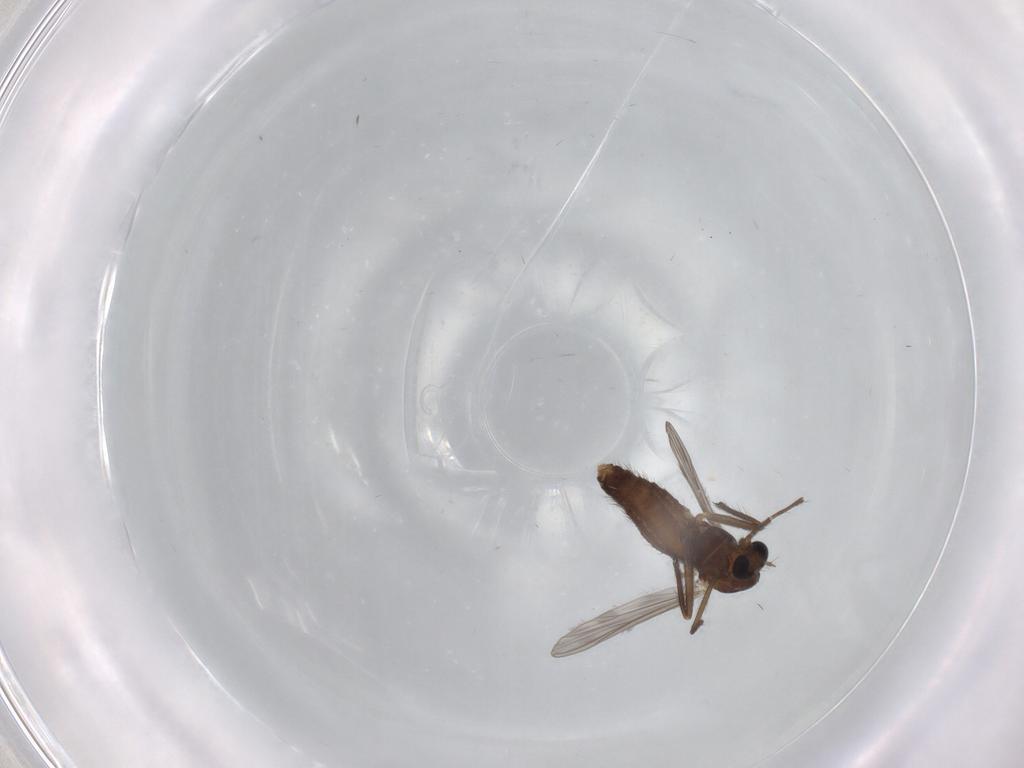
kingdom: Animalia
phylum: Arthropoda
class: Insecta
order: Diptera
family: Chironomidae
